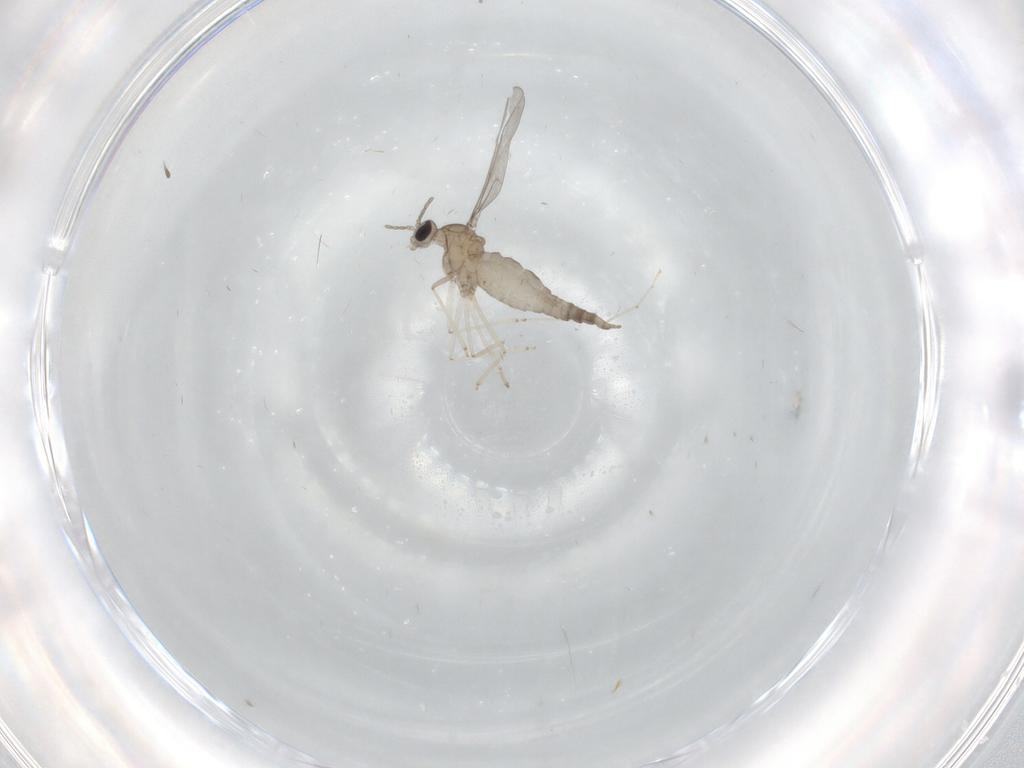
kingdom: Animalia
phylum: Arthropoda
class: Insecta
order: Diptera
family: Cecidomyiidae
